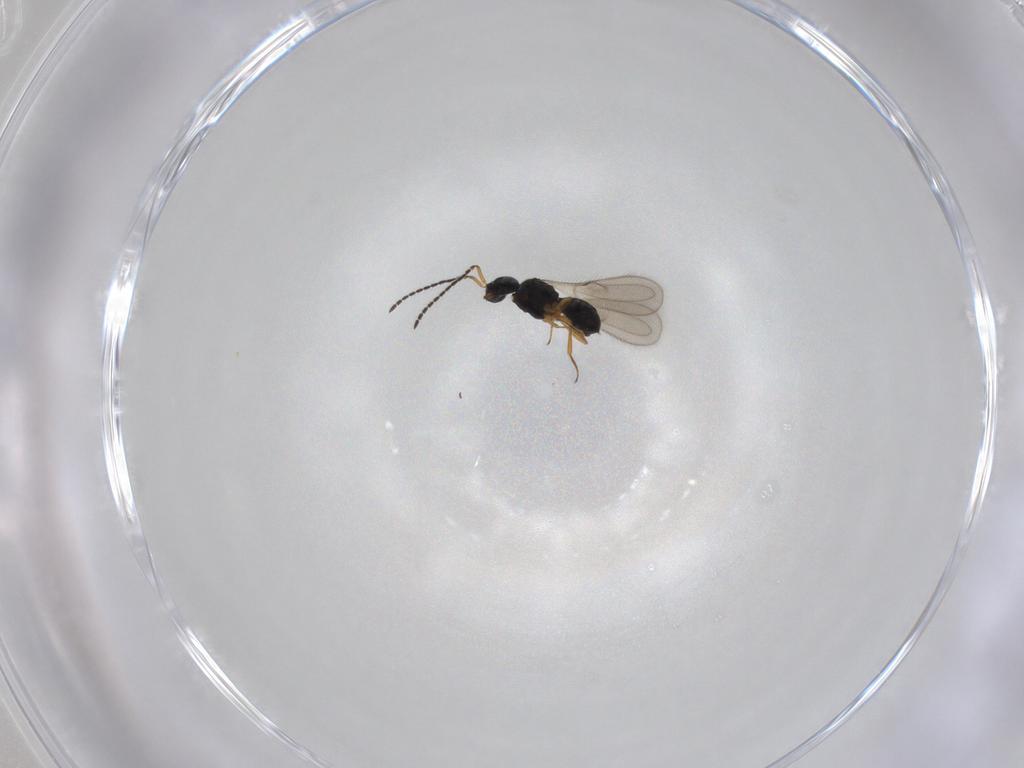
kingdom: Animalia
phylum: Arthropoda
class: Insecta
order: Hymenoptera
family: Scelionidae
